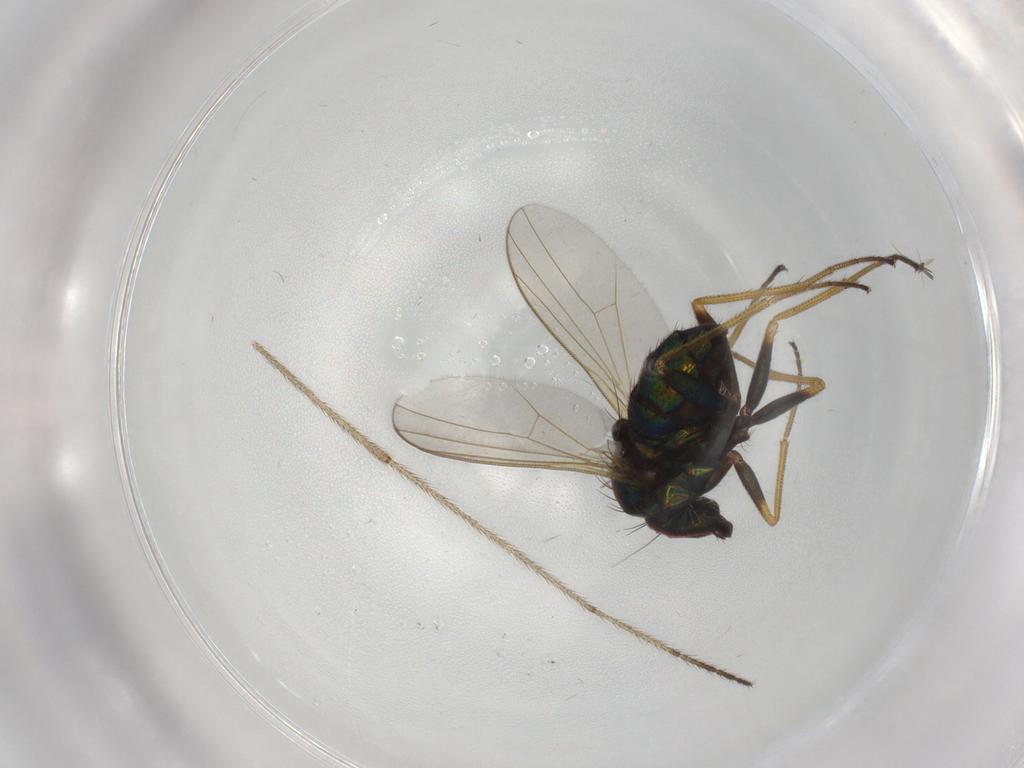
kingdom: Animalia
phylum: Arthropoda
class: Insecta
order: Diptera
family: Dolichopodidae
